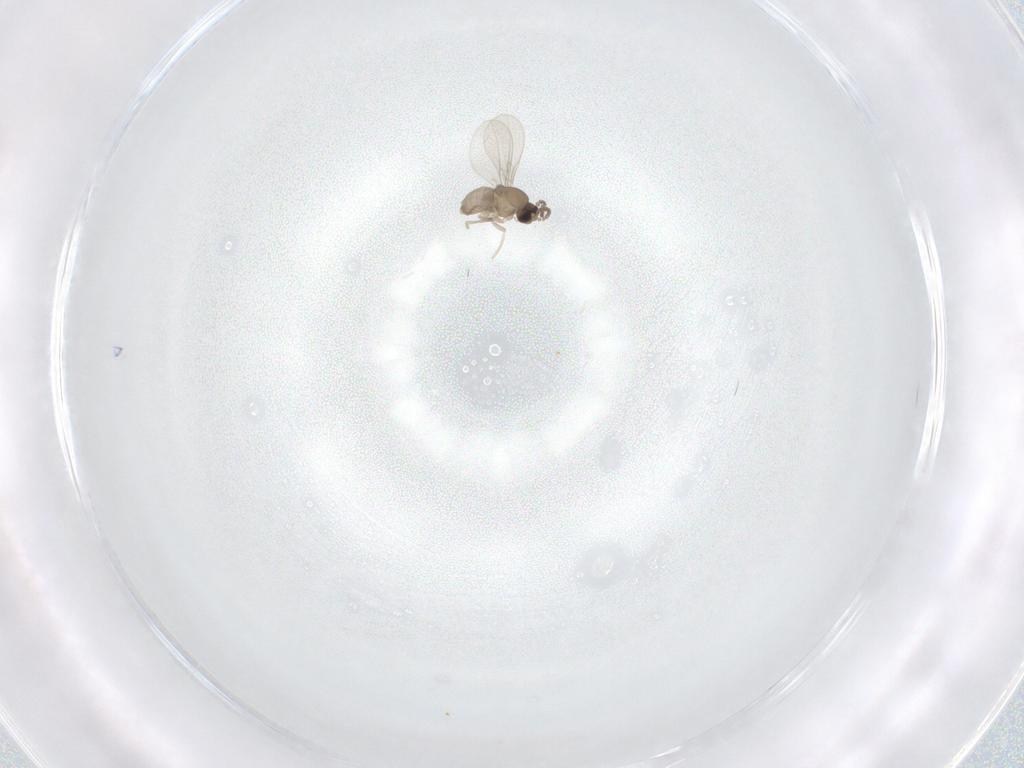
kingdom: Animalia
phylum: Arthropoda
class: Insecta
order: Diptera
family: Cecidomyiidae
